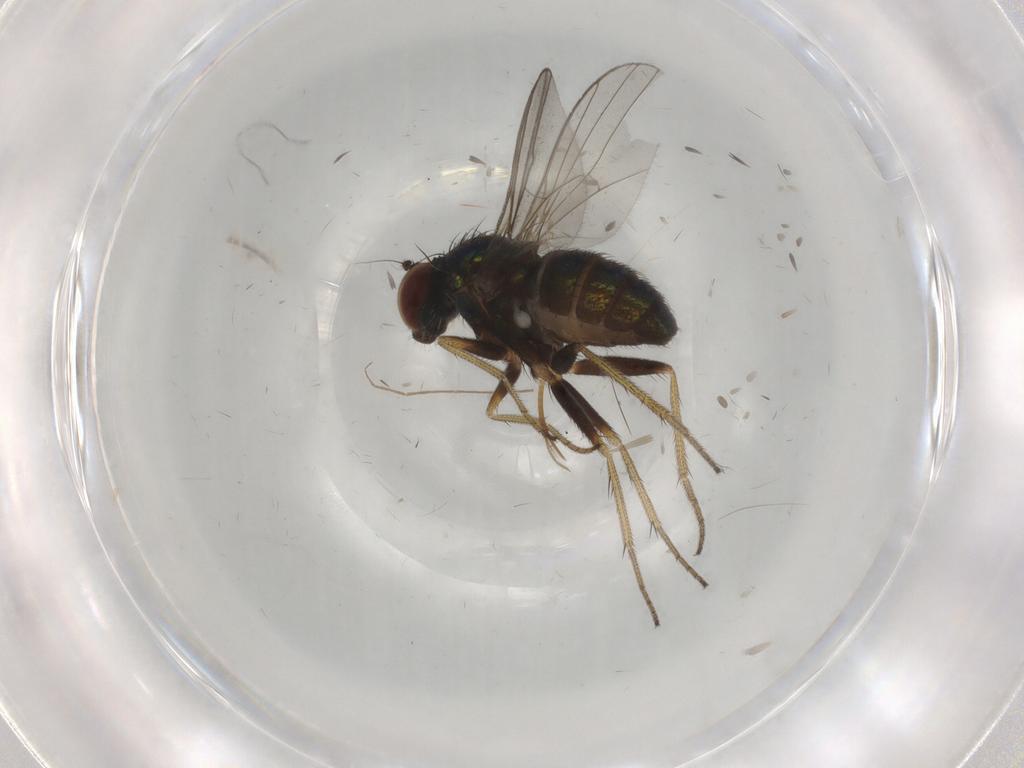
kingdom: Animalia
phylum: Arthropoda
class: Insecta
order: Diptera
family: Ceratopogonidae
